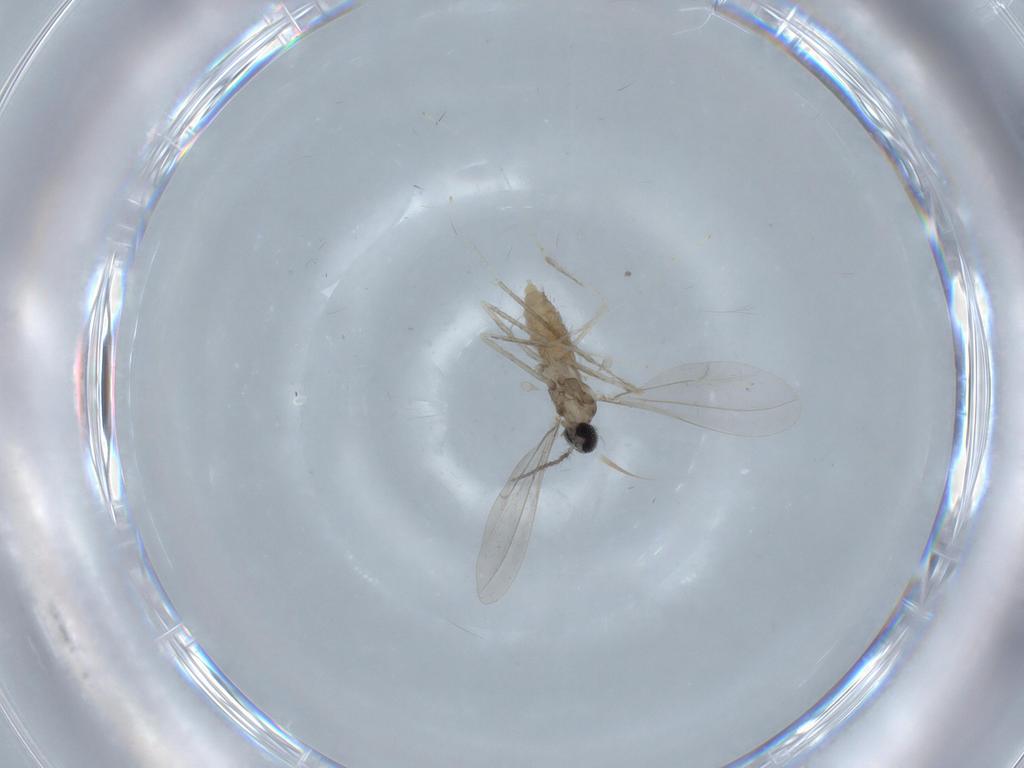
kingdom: Animalia
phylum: Arthropoda
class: Insecta
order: Diptera
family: Cecidomyiidae
